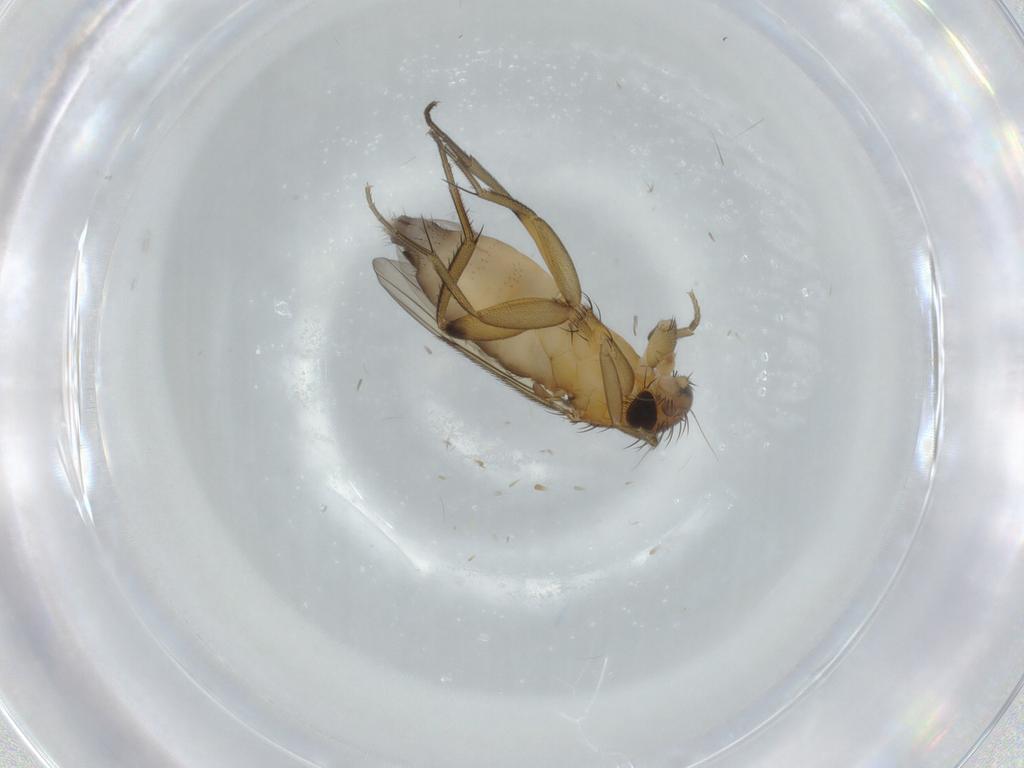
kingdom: Animalia
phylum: Arthropoda
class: Insecta
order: Diptera
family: Phoridae
